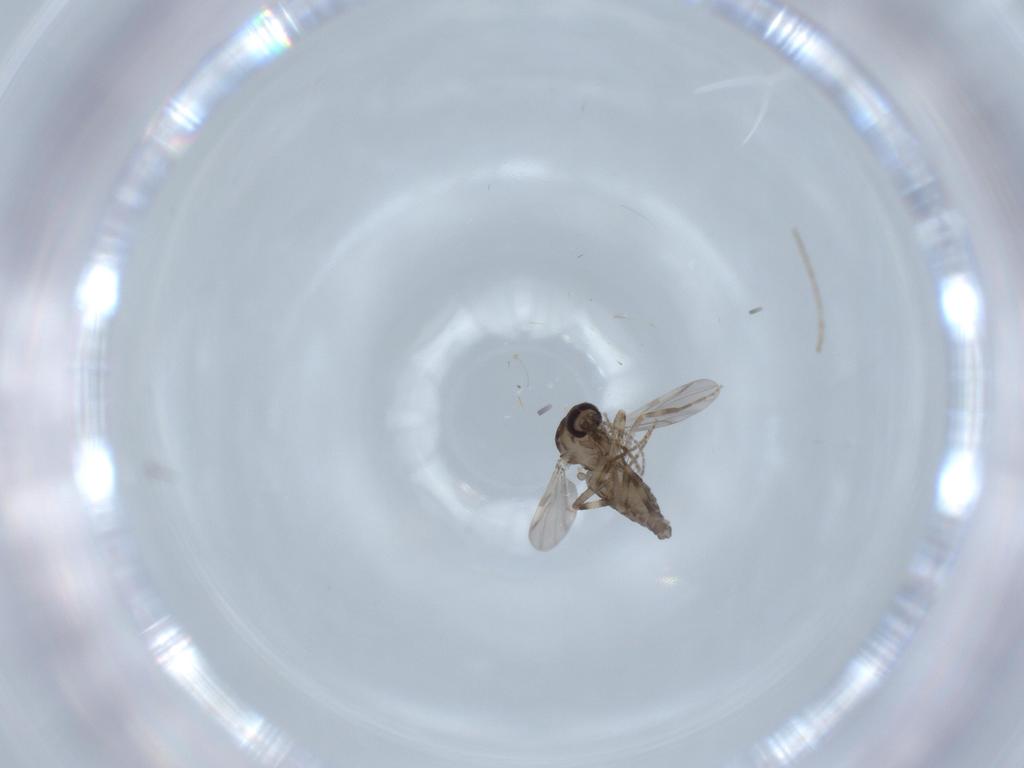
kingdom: Animalia
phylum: Arthropoda
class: Insecta
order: Diptera
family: Ceratopogonidae
